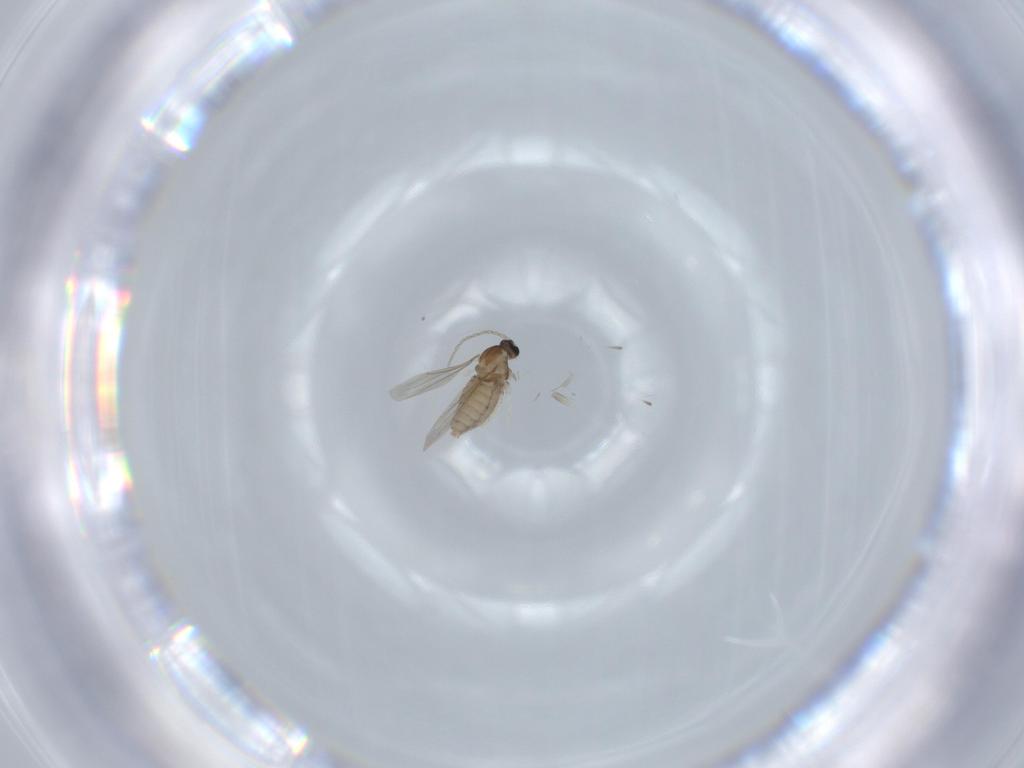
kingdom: Animalia
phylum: Arthropoda
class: Insecta
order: Diptera
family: Cecidomyiidae
